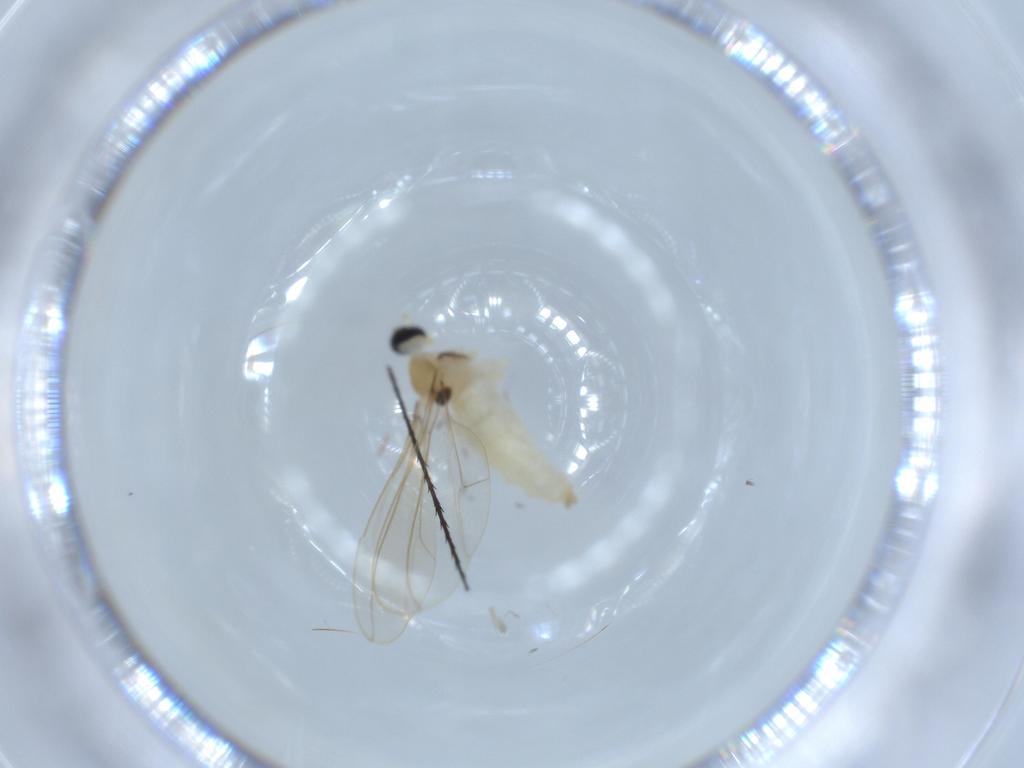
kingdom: Animalia
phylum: Arthropoda
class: Insecta
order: Diptera
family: Cecidomyiidae
